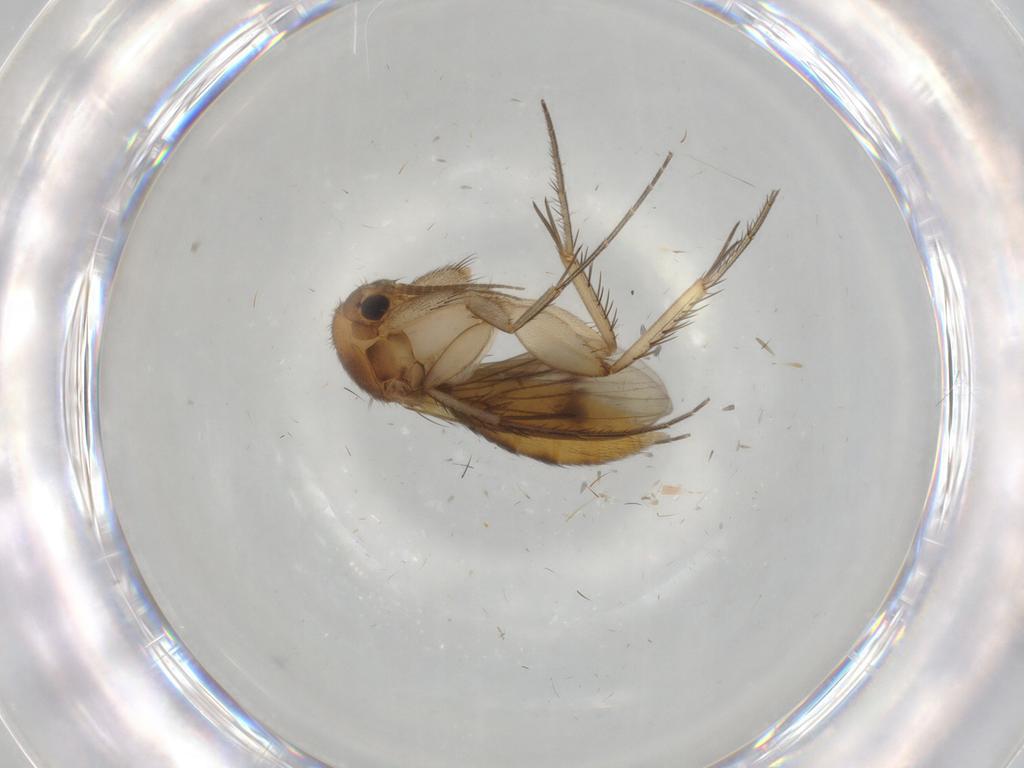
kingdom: Animalia
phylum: Arthropoda
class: Insecta
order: Diptera
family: Mycetophilidae
